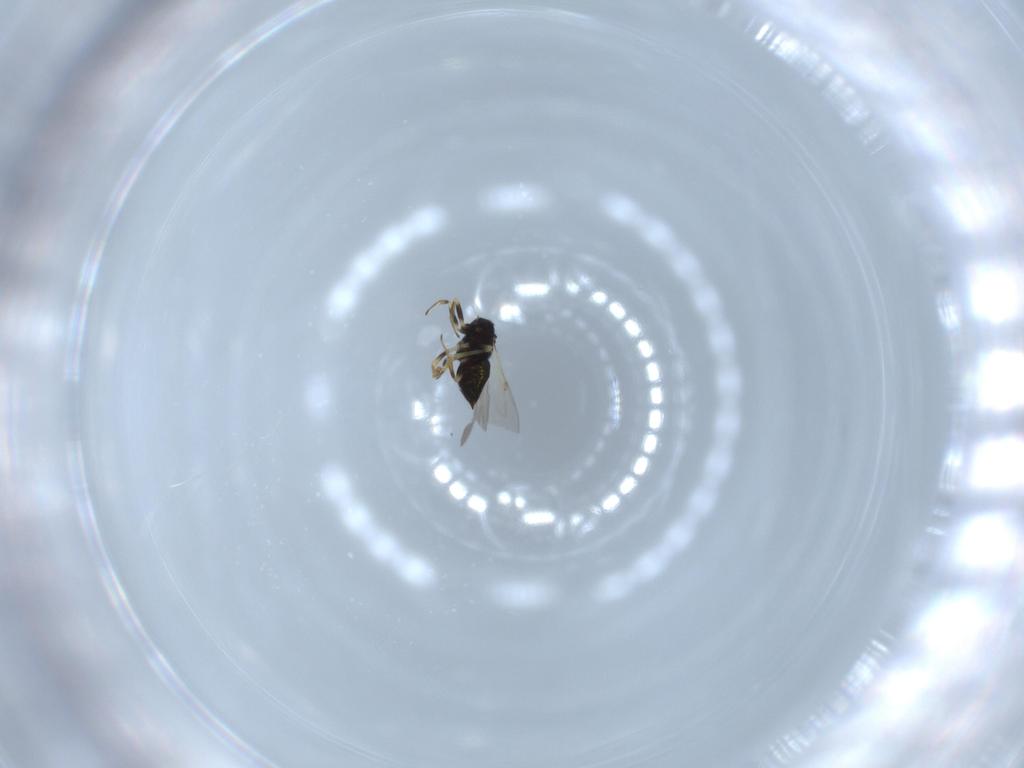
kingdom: Animalia
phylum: Arthropoda
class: Insecta
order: Hymenoptera
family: Encyrtidae
